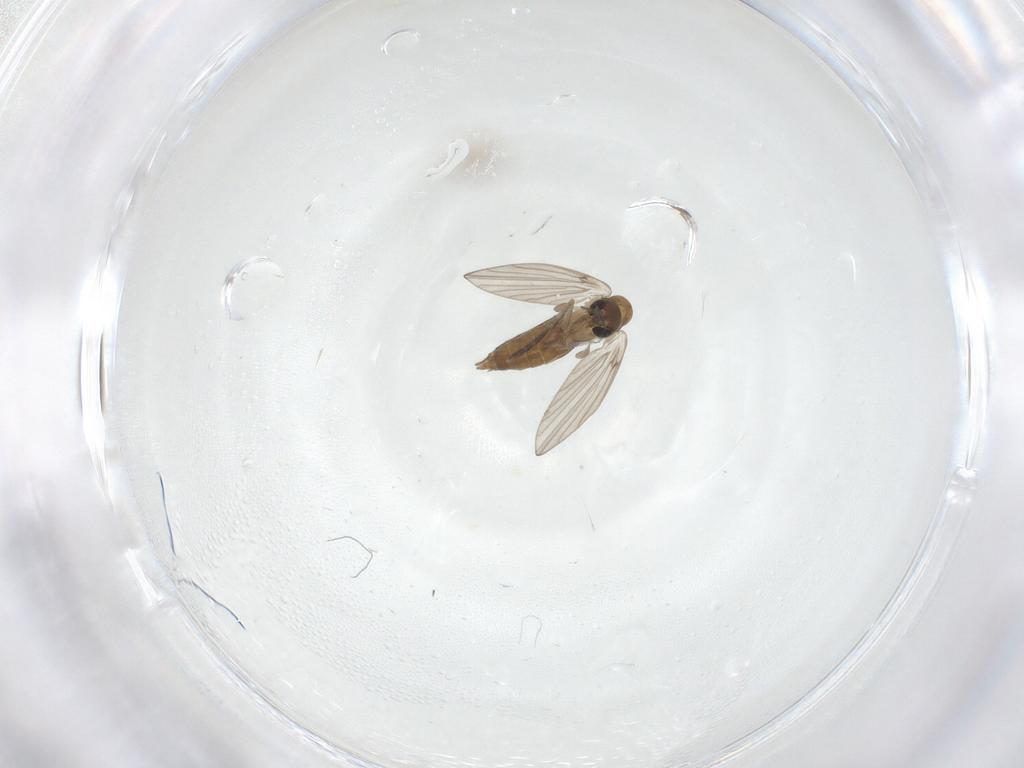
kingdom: Animalia
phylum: Arthropoda
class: Insecta
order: Diptera
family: Psychodidae
